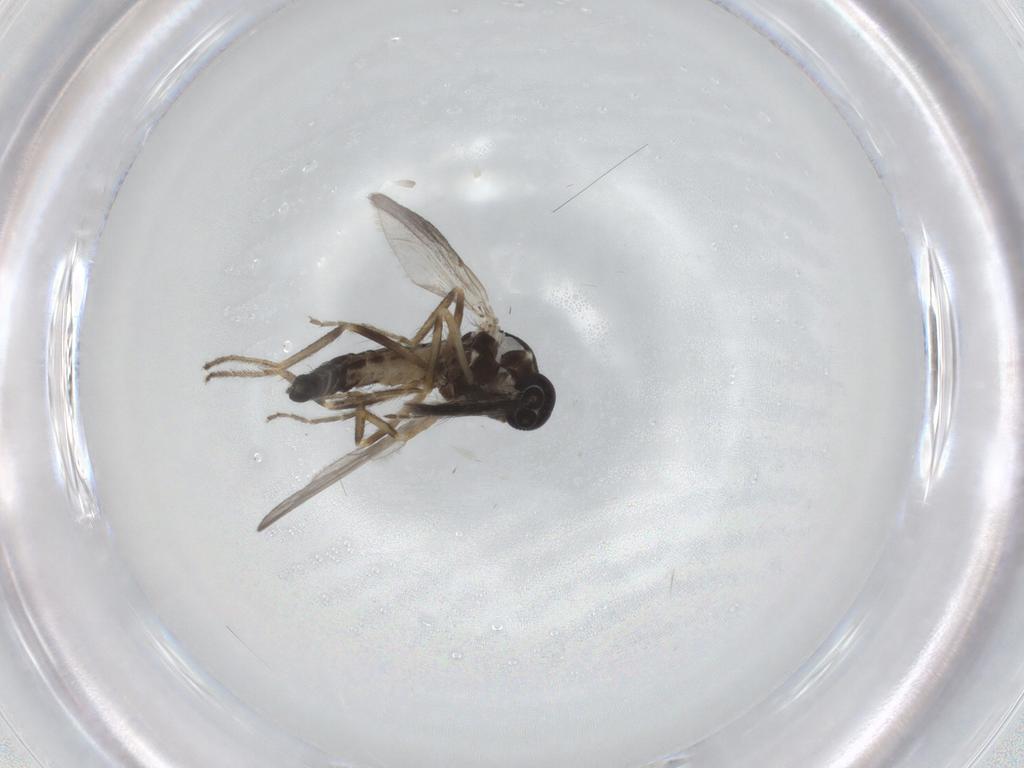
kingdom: Animalia
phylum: Arthropoda
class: Insecta
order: Diptera
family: Ceratopogonidae
